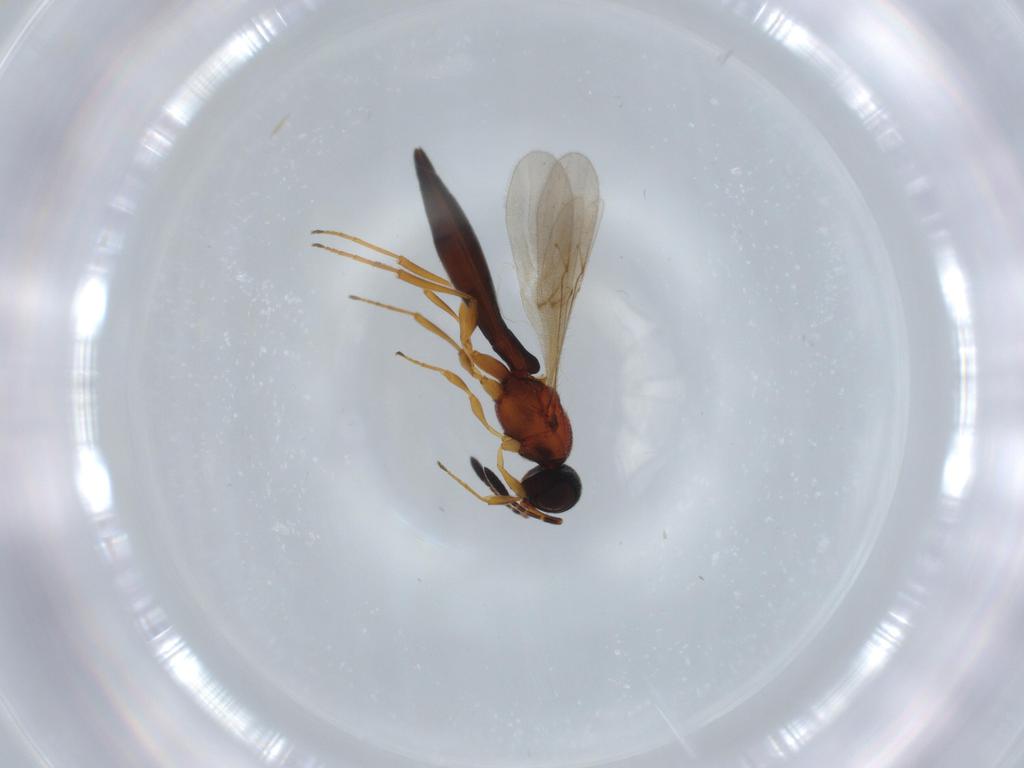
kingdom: Animalia
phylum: Arthropoda
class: Insecta
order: Hymenoptera
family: Scelionidae
